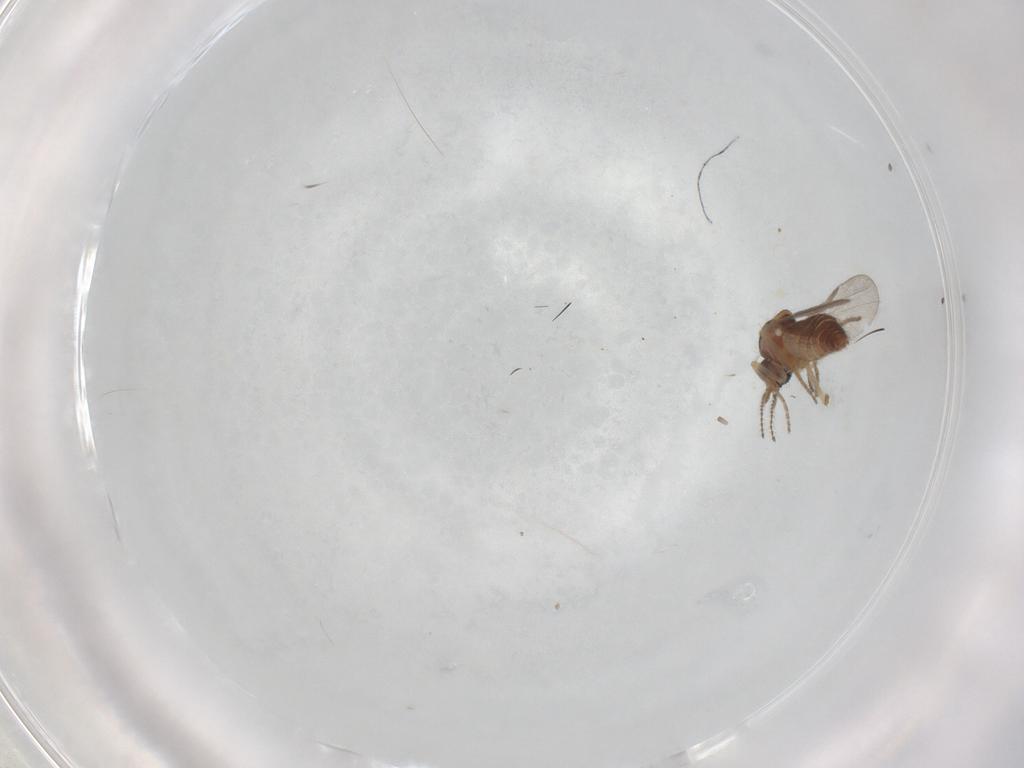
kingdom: Animalia
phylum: Arthropoda
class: Insecta
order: Diptera
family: Ceratopogonidae
